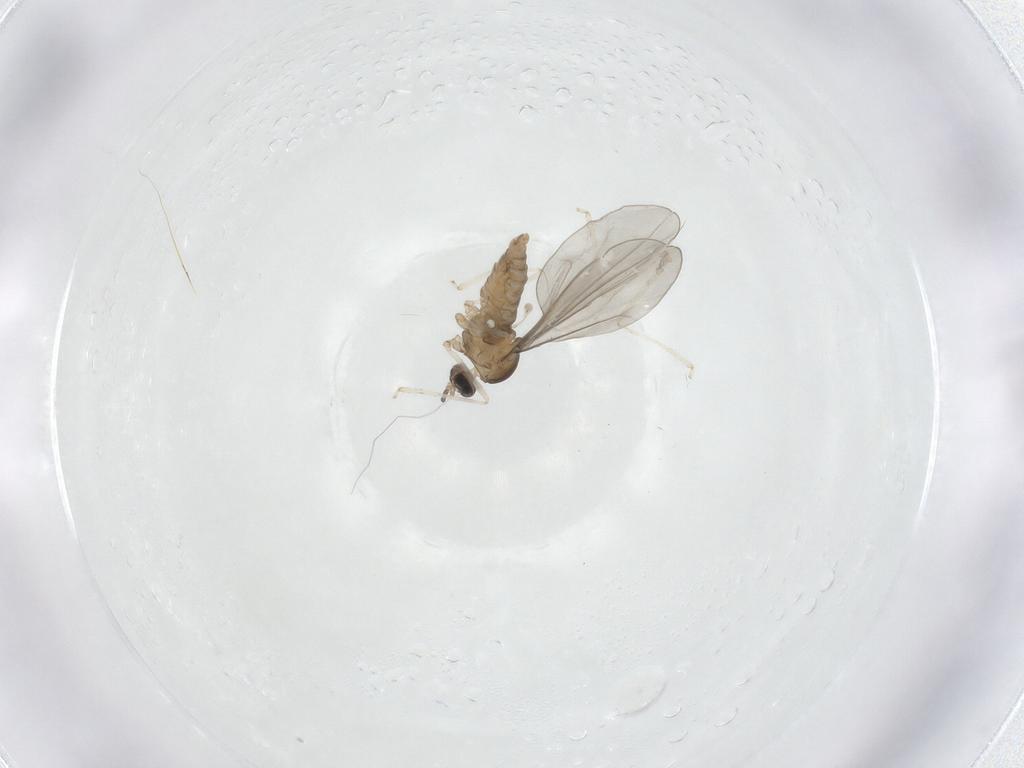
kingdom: Animalia
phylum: Arthropoda
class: Insecta
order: Diptera
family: Cecidomyiidae
